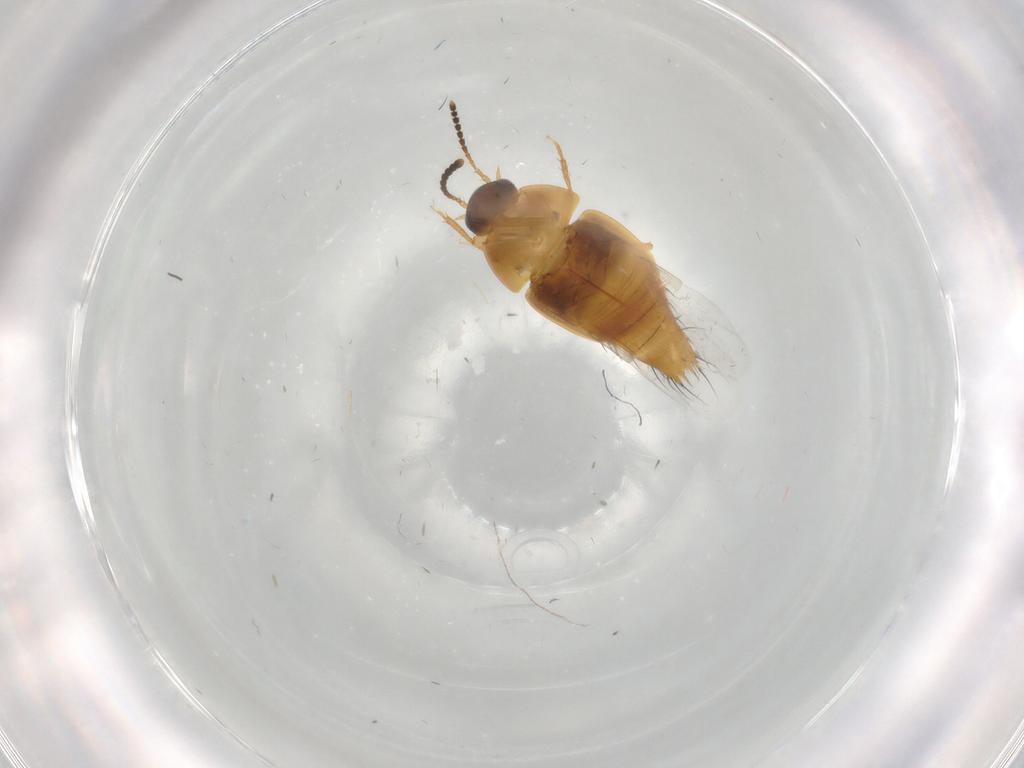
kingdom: Animalia
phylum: Arthropoda
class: Insecta
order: Coleoptera
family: Staphylinidae
